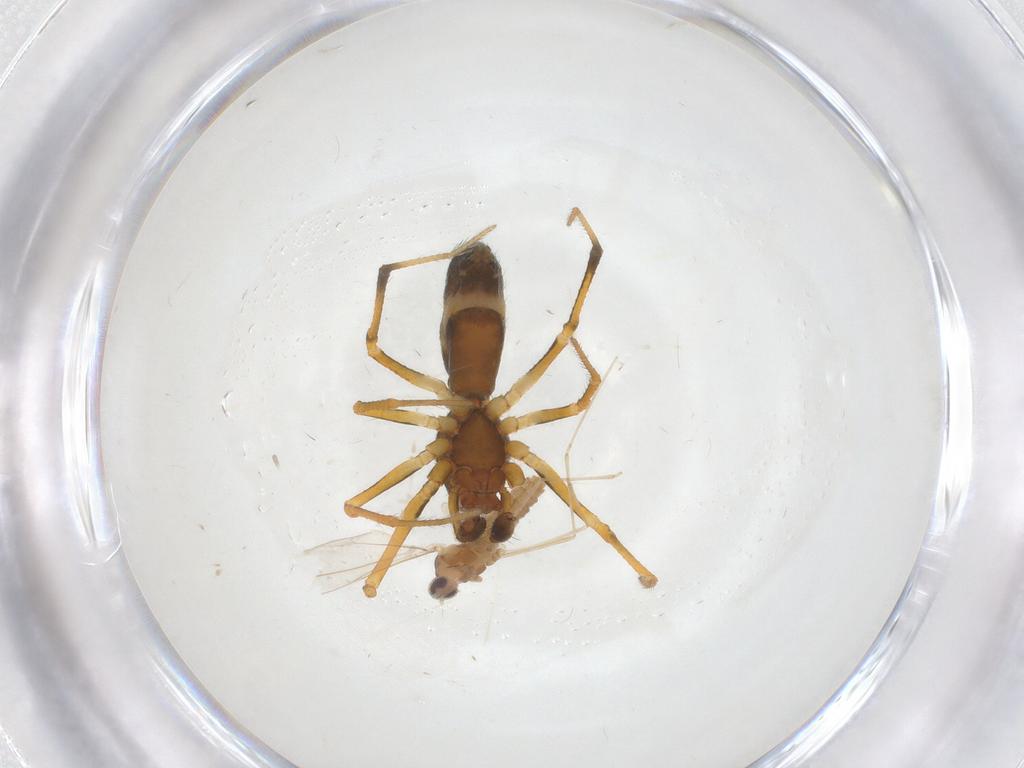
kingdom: Animalia
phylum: Arthropoda
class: Insecta
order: Diptera
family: Cecidomyiidae
